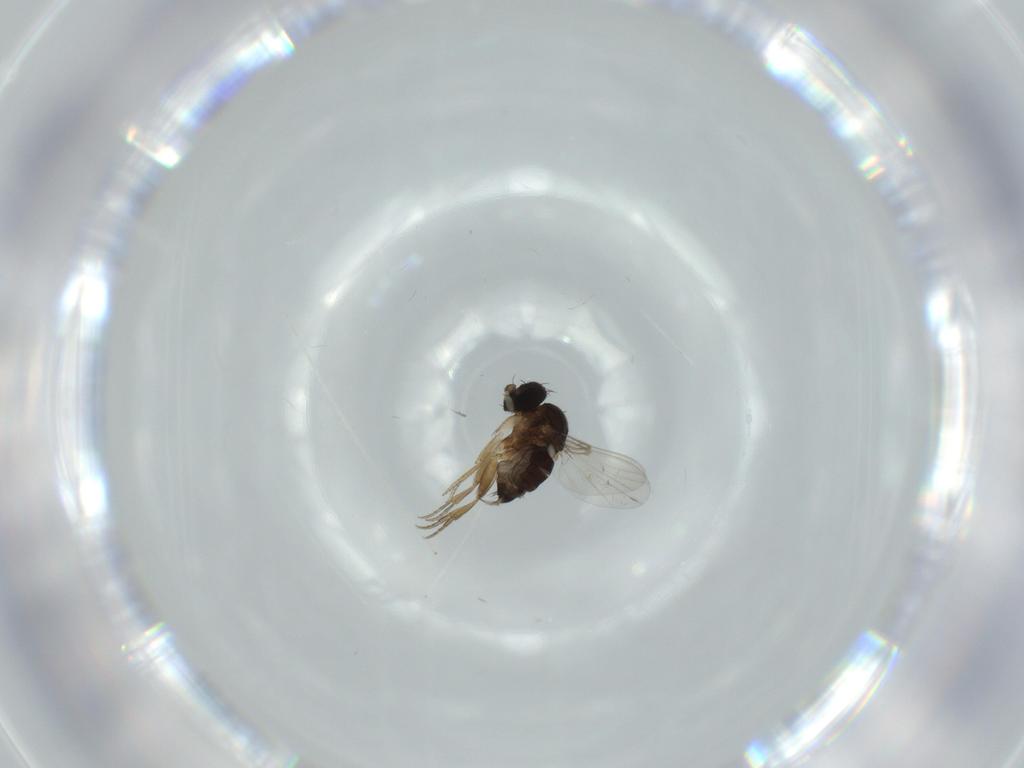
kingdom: Animalia
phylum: Arthropoda
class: Insecta
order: Diptera
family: Phoridae
